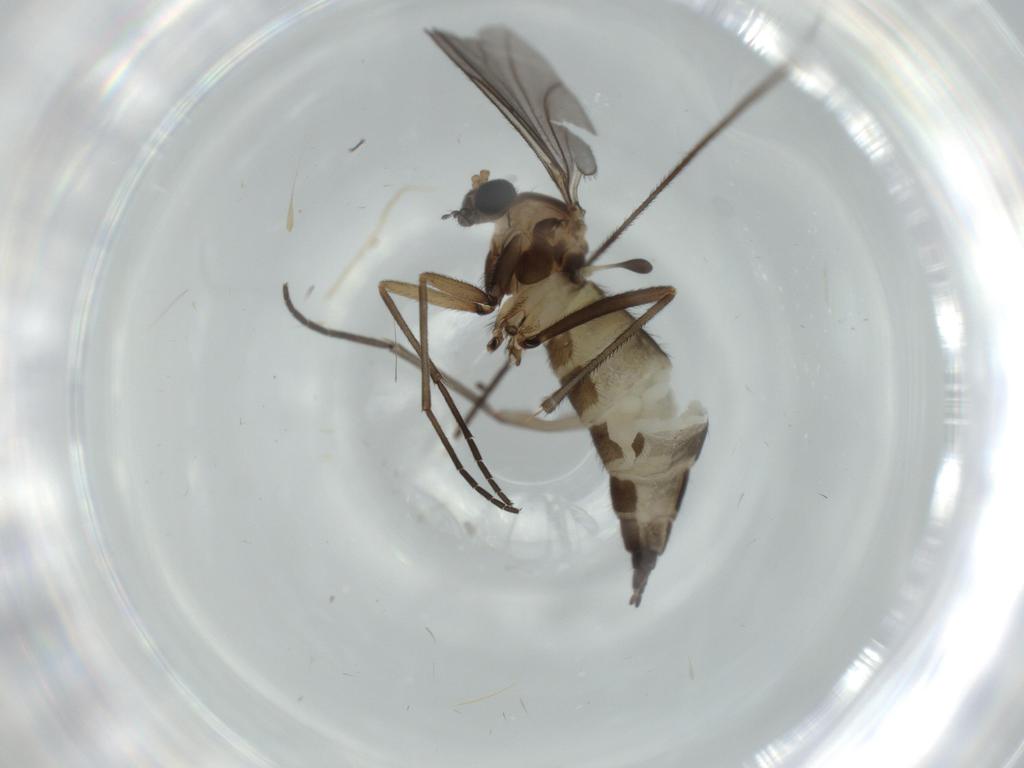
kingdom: Animalia
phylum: Arthropoda
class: Insecta
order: Diptera
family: Sciaridae
